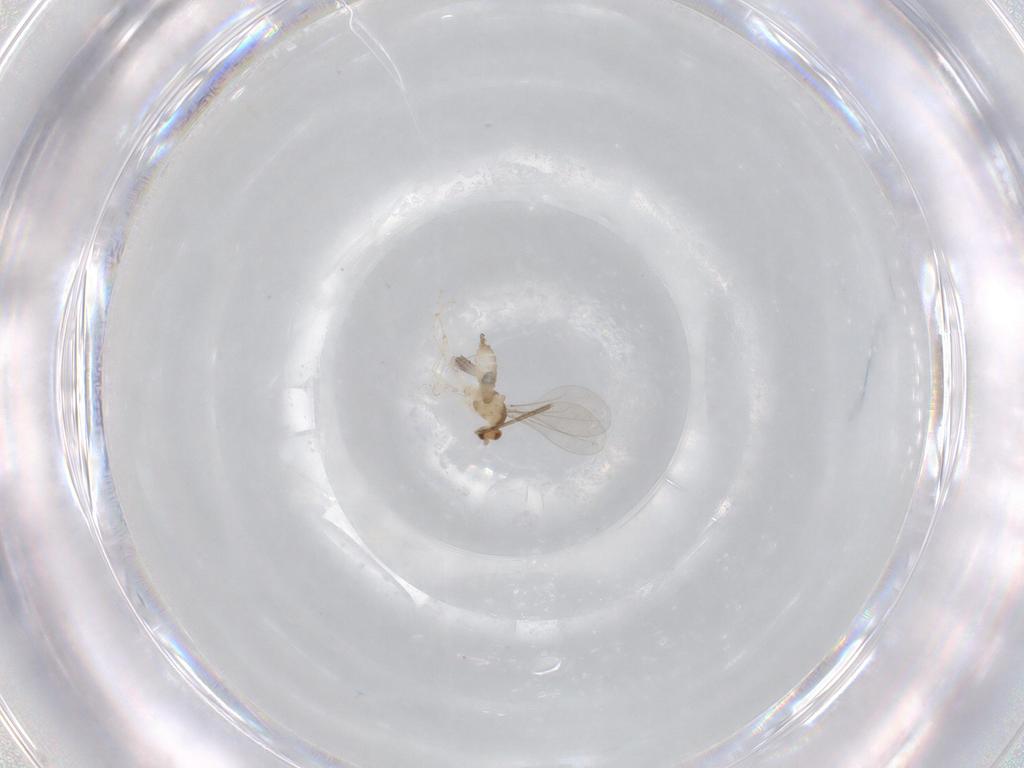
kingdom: Animalia
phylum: Arthropoda
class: Insecta
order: Diptera
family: Cecidomyiidae
